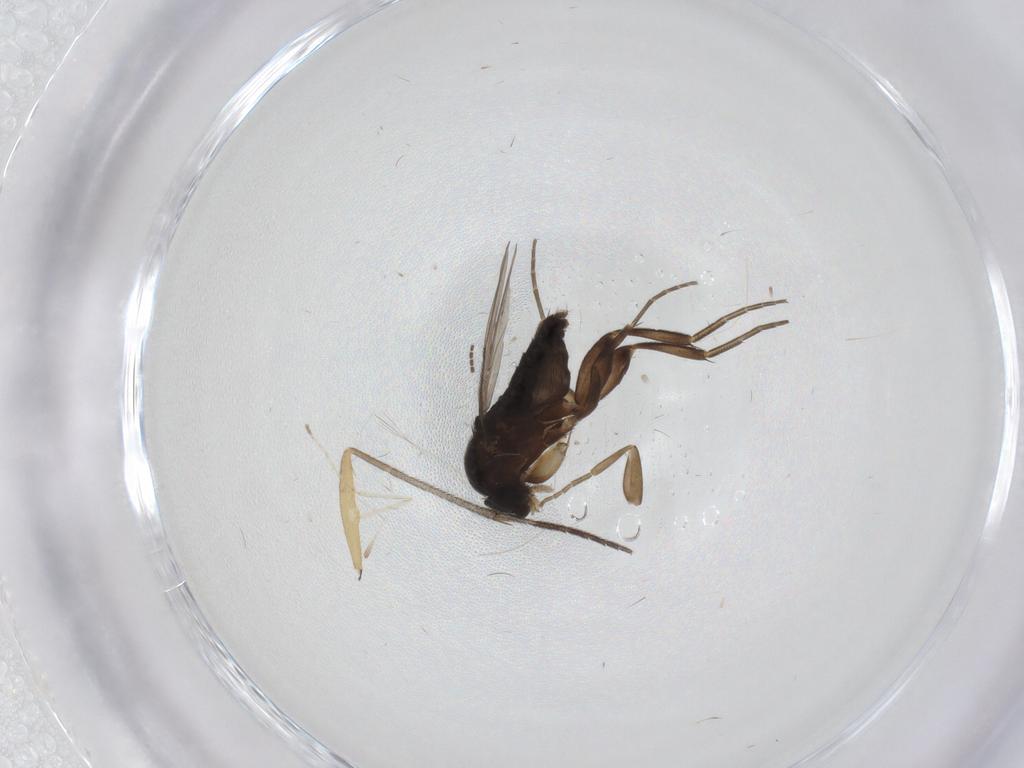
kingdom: Animalia
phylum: Arthropoda
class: Insecta
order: Diptera
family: Phoridae
